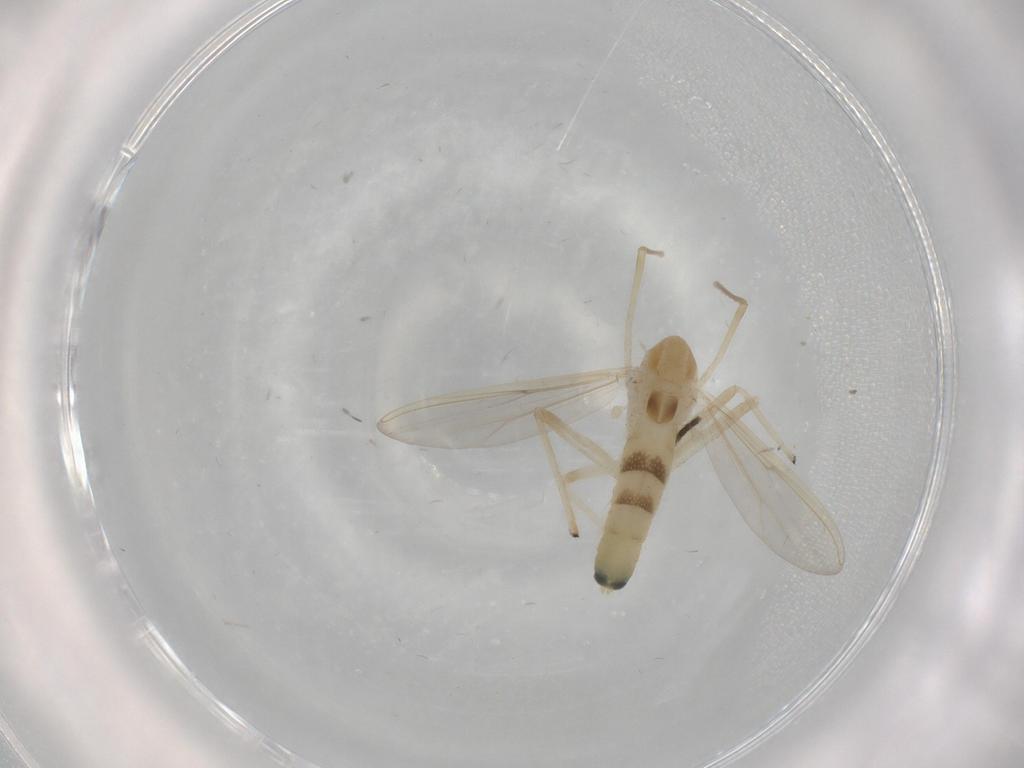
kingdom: Animalia
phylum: Arthropoda
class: Insecta
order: Diptera
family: Chironomidae
